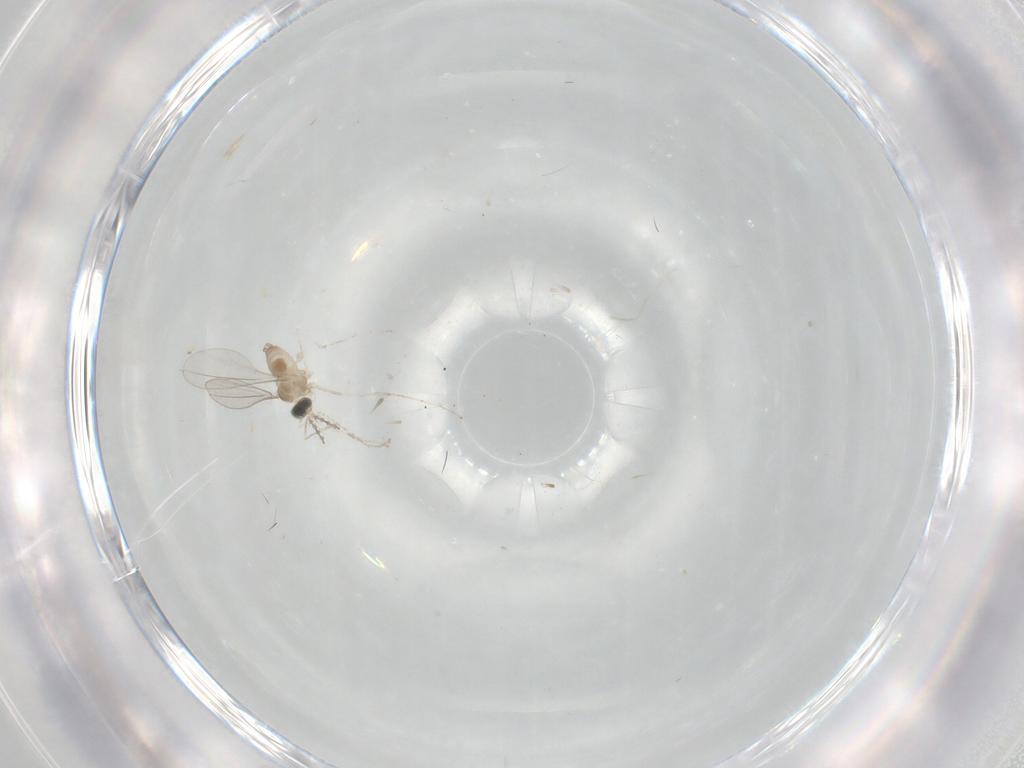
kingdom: Animalia
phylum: Arthropoda
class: Insecta
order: Diptera
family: Cecidomyiidae
